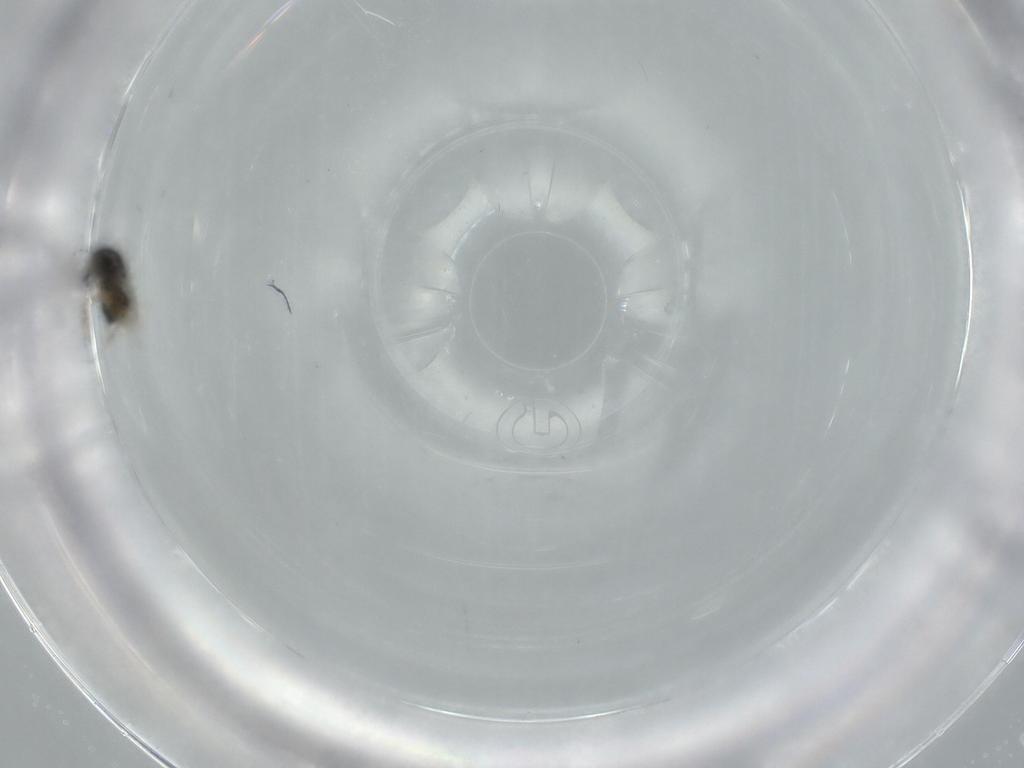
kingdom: Animalia
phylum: Arthropoda
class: Insecta
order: Hymenoptera
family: Scelionidae
